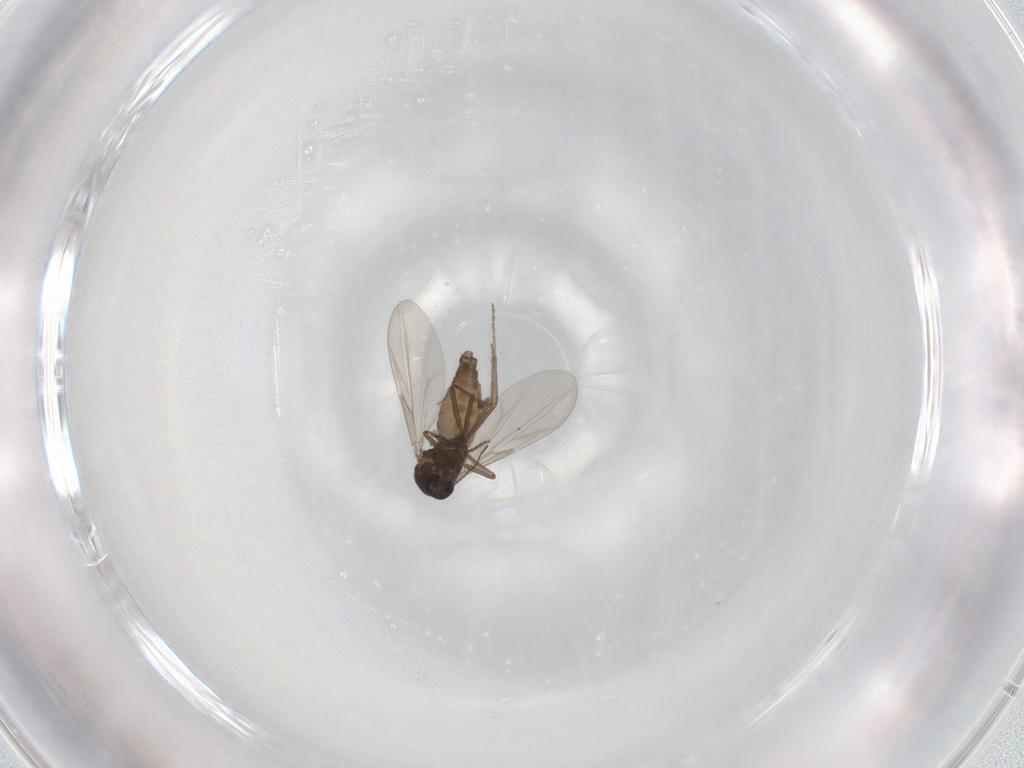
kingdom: Animalia
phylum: Arthropoda
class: Insecta
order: Diptera
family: Ceratopogonidae
